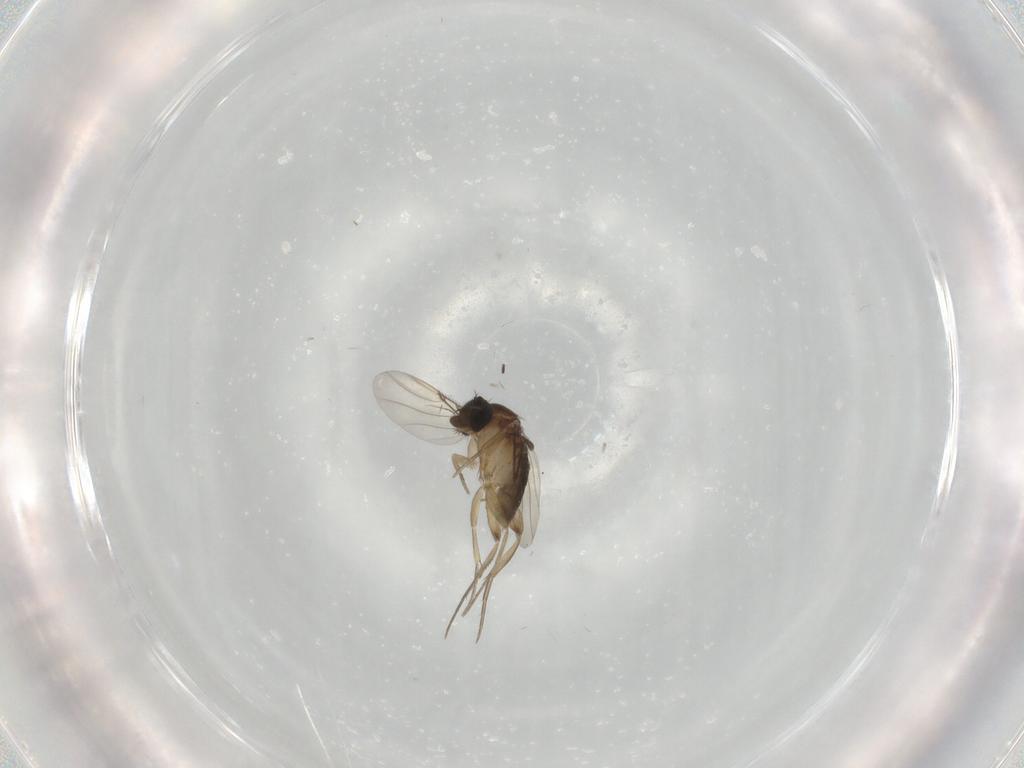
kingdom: Animalia
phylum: Arthropoda
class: Insecta
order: Diptera
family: Phoridae
